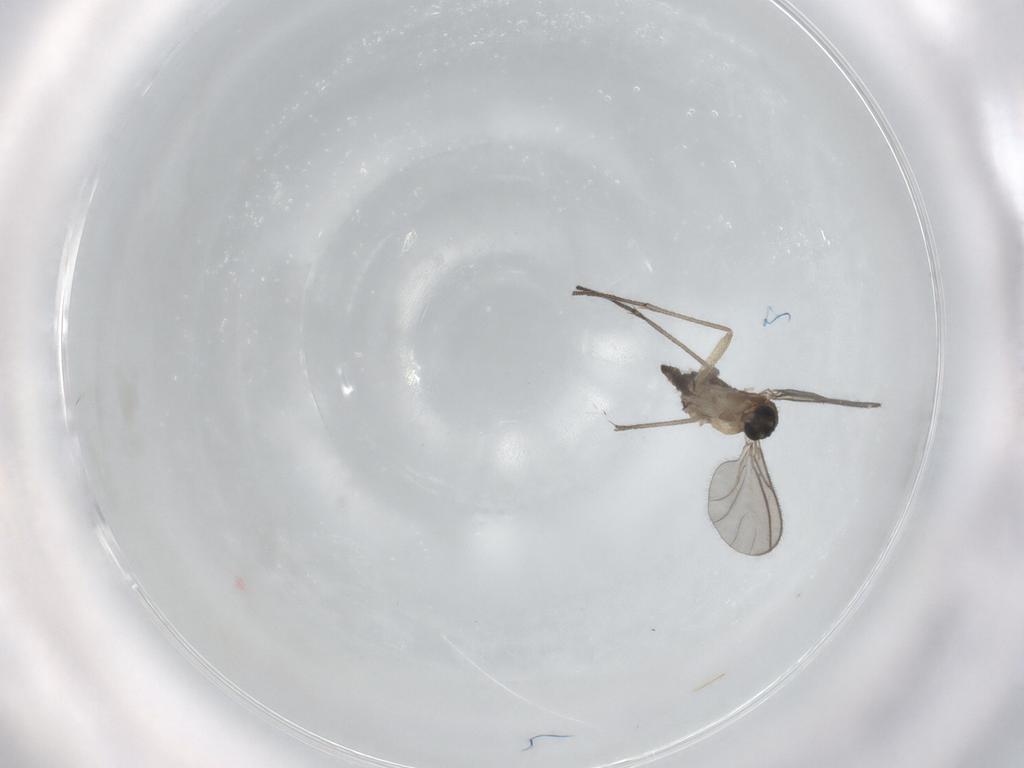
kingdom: Animalia
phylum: Arthropoda
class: Insecta
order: Diptera
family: Sciaridae
